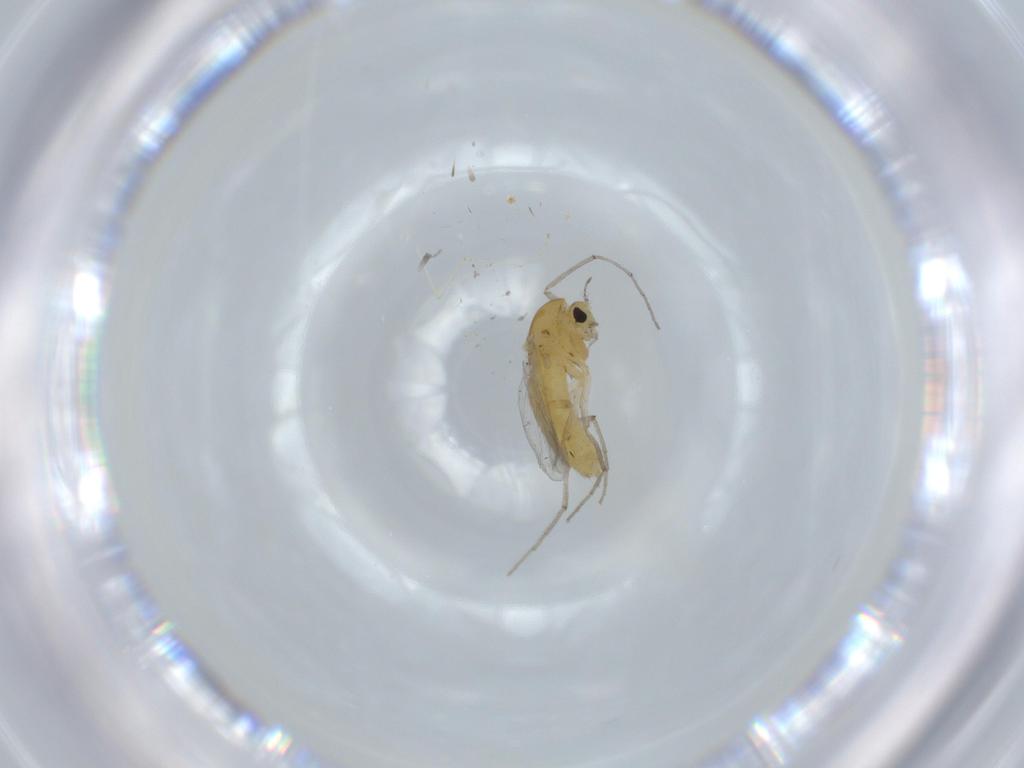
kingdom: Animalia
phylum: Arthropoda
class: Insecta
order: Diptera
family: Chironomidae
